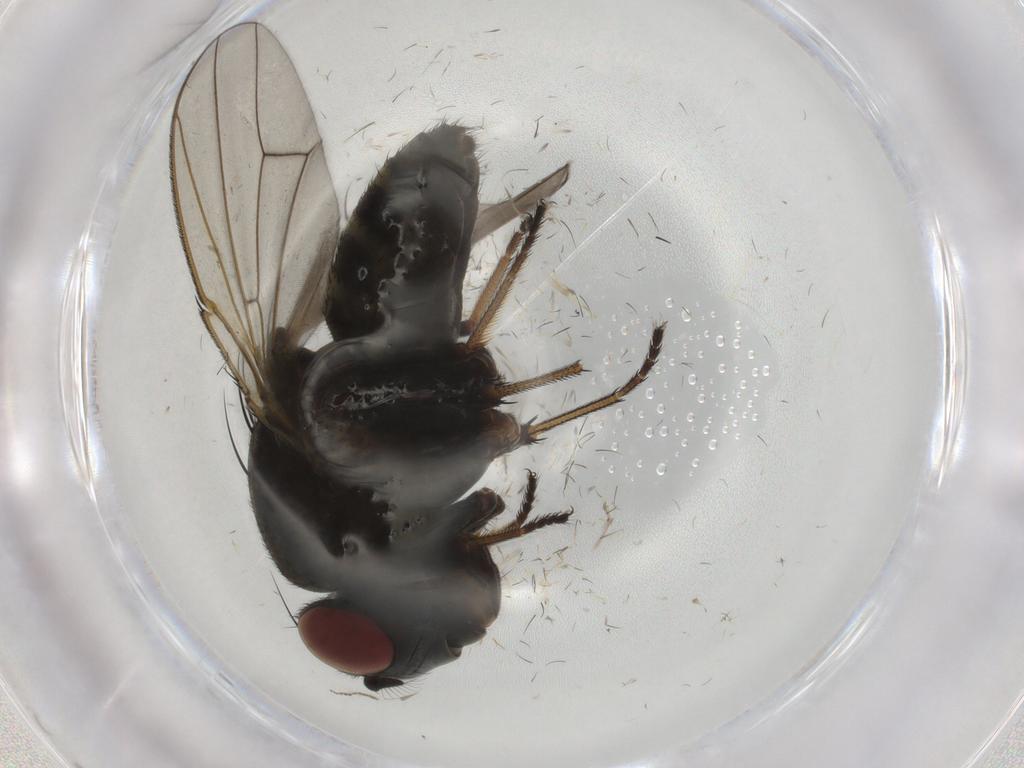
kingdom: Animalia
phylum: Arthropoda
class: Insecta
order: Diptera
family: Ephydridae
